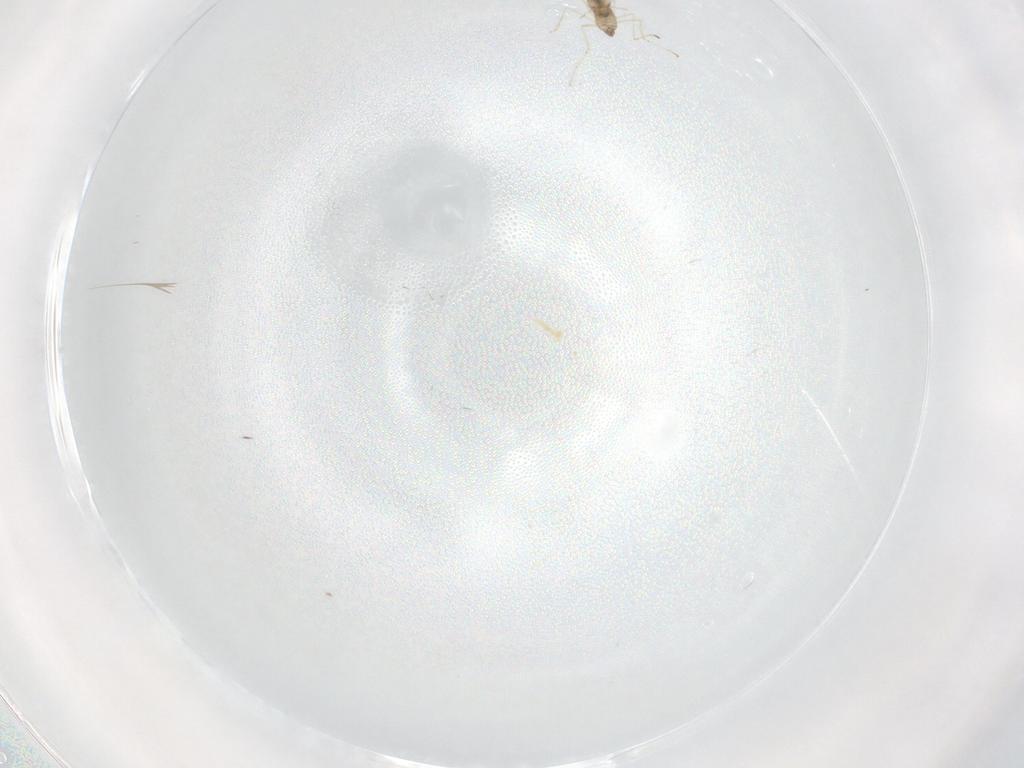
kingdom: Animalia
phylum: Arthropoda
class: Insecta
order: Diptera
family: Cecidomyiidae
